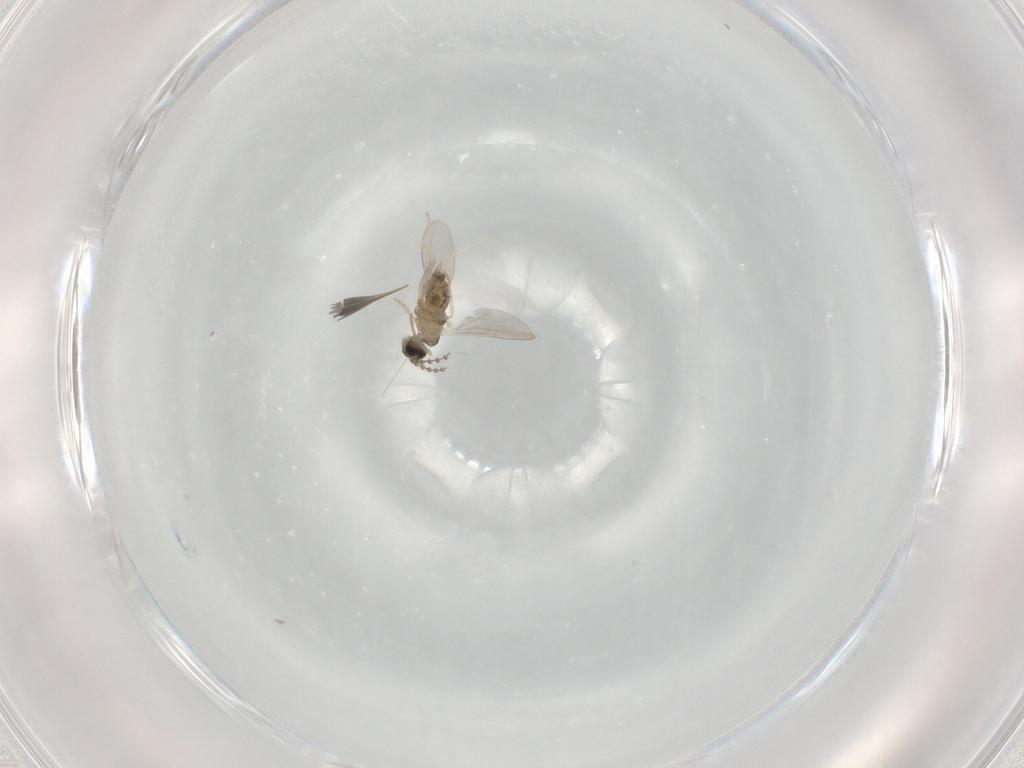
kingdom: Animalia
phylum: Arthropoda
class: Insecta
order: Diptera
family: Cecidomyiidae
